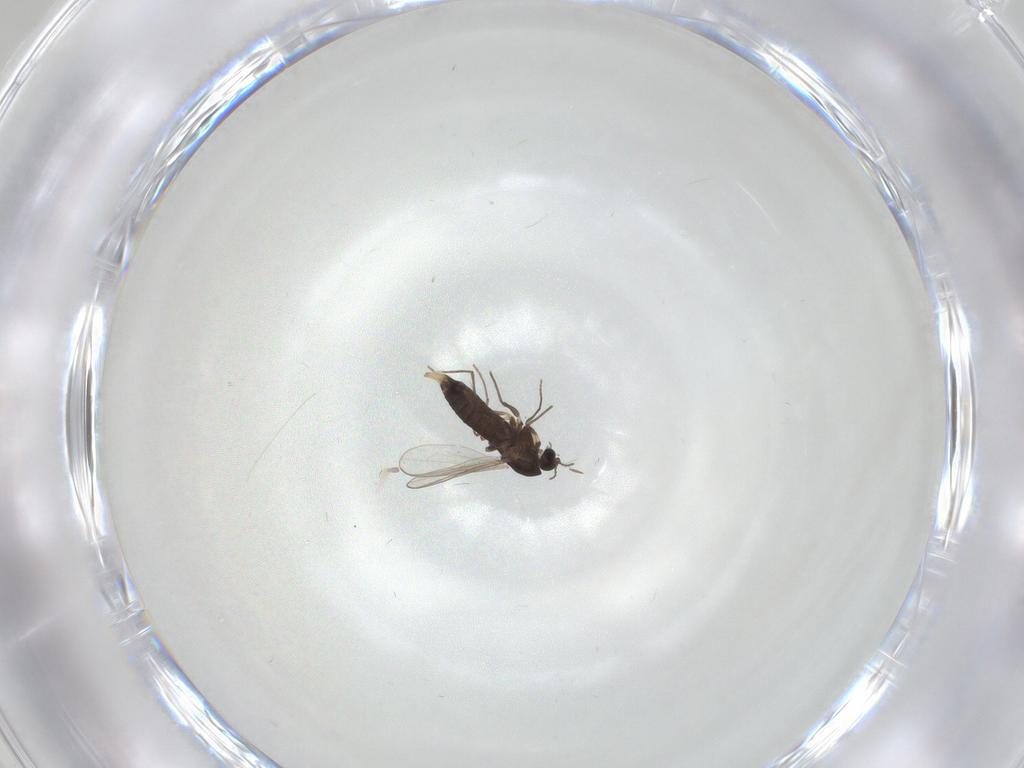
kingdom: Animalia
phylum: Arthropoda
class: Insecta
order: Diptera
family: Chironomidae
